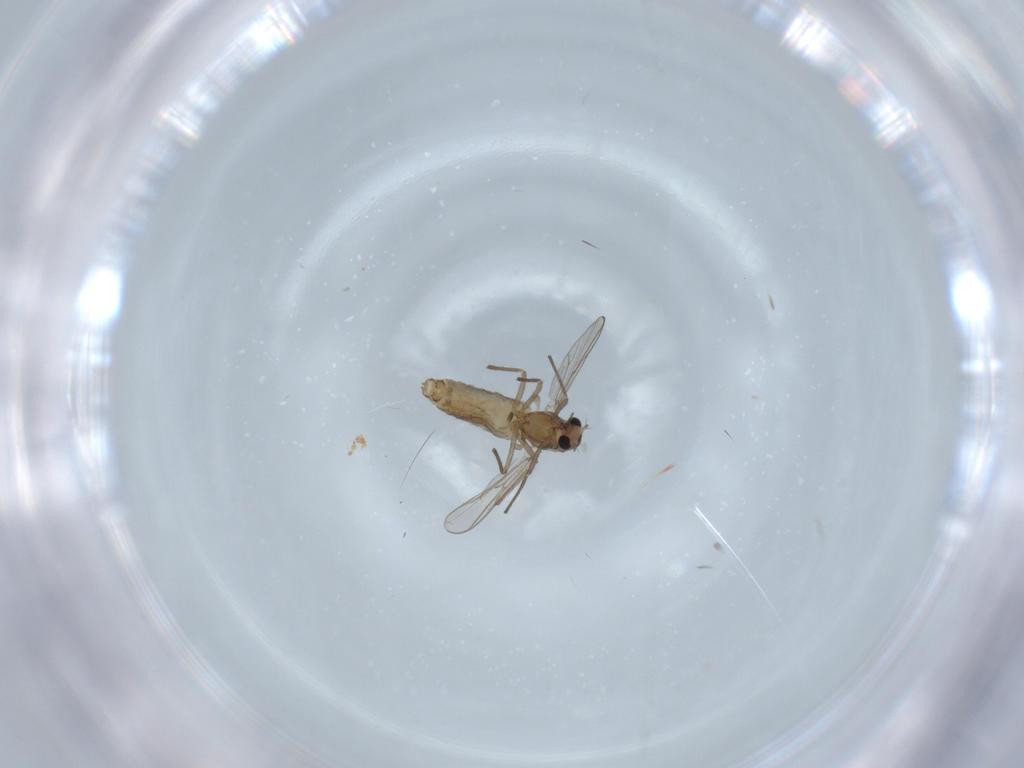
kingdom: Animalia
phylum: Arthropoda
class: Insecta
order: Diptera
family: Chironomidae
